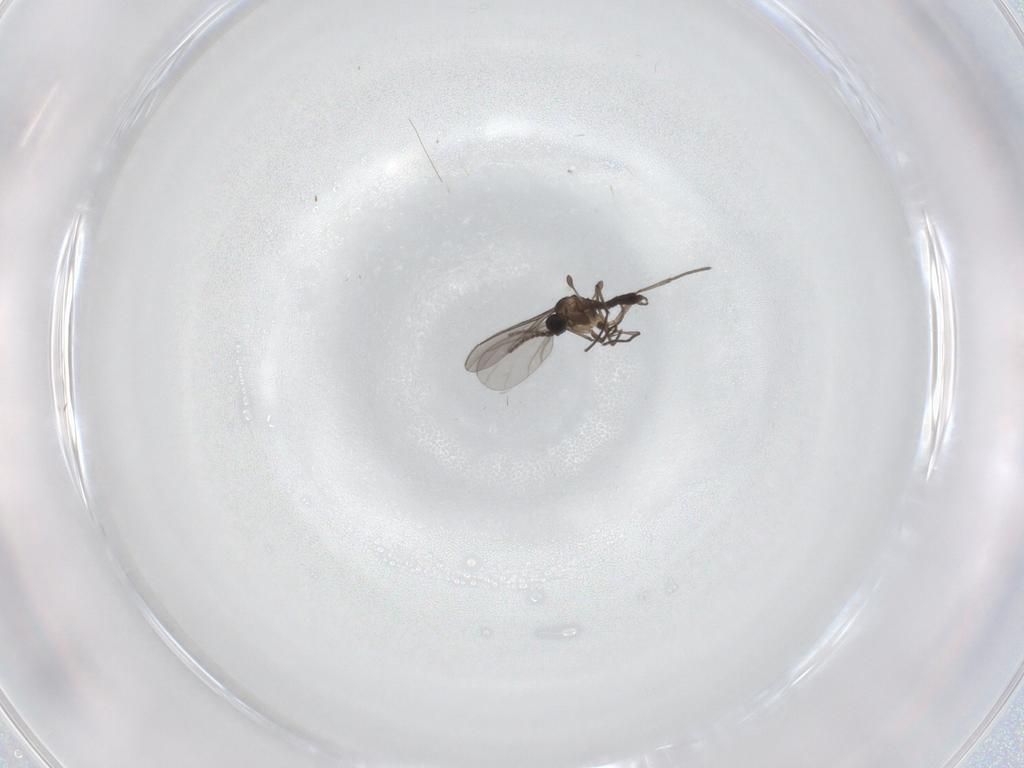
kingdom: Animalia
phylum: Arthropoda
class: Insecta
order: Diptera
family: Sciaridae
